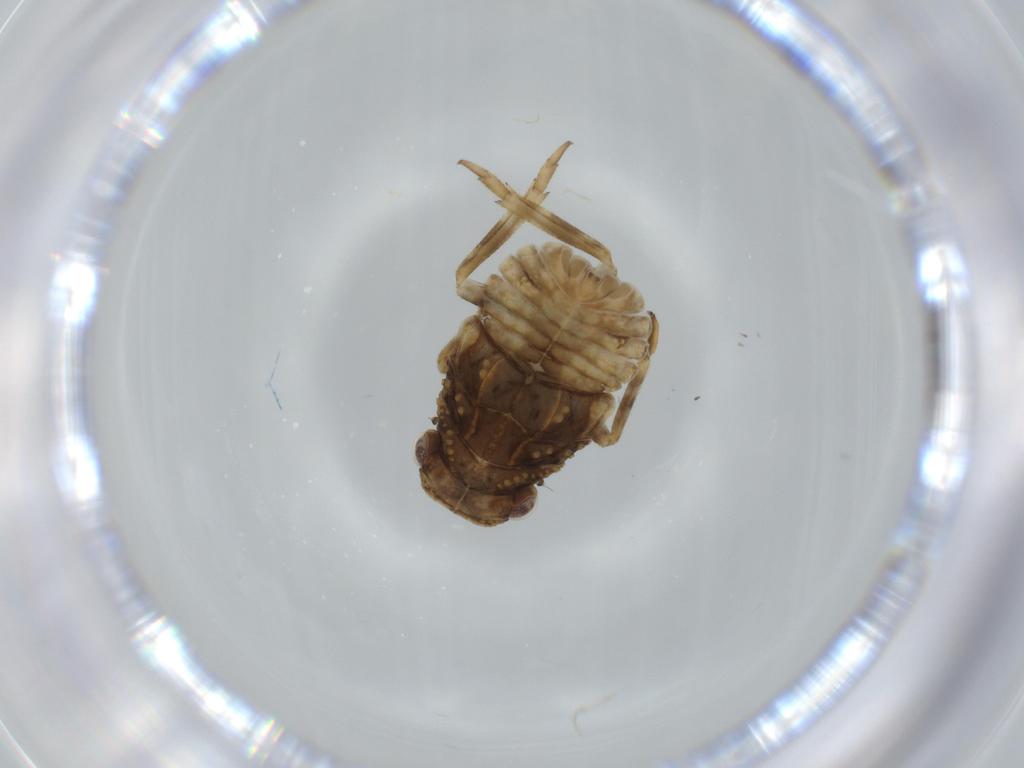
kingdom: Animalia
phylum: Arthropoda
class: Insecta
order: Hemiptera
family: Fulgoroidea_incertae_sedis
